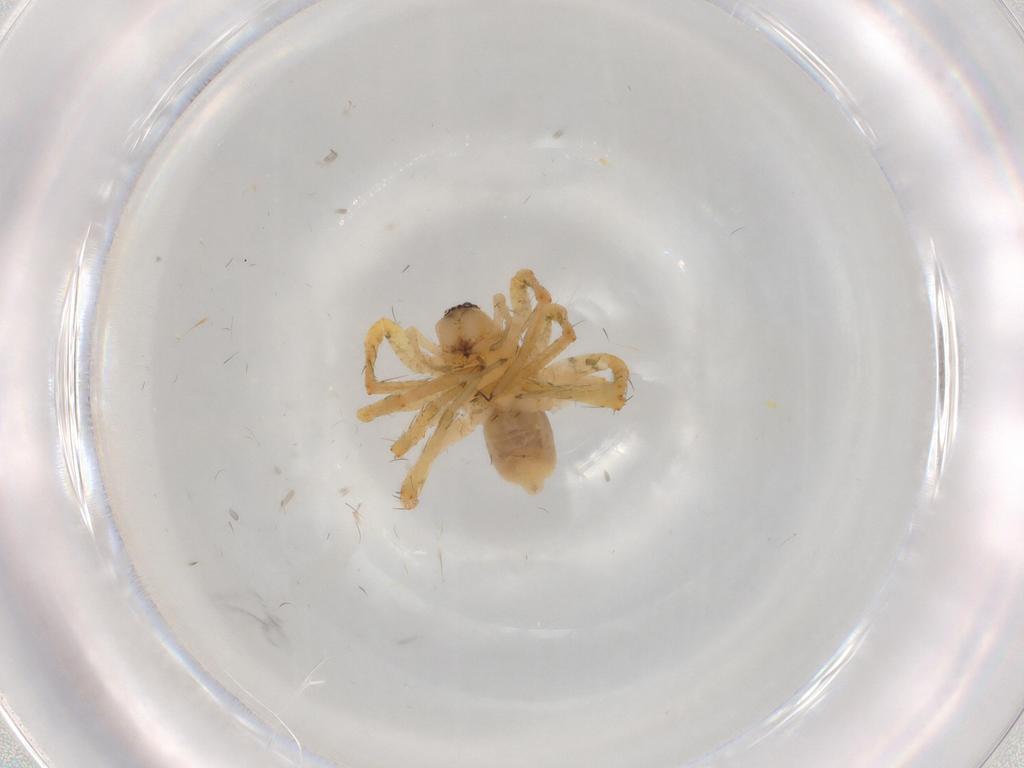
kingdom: Animalia
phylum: Arthropoda
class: Arachnida
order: Araneae
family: Anyphaenidae
